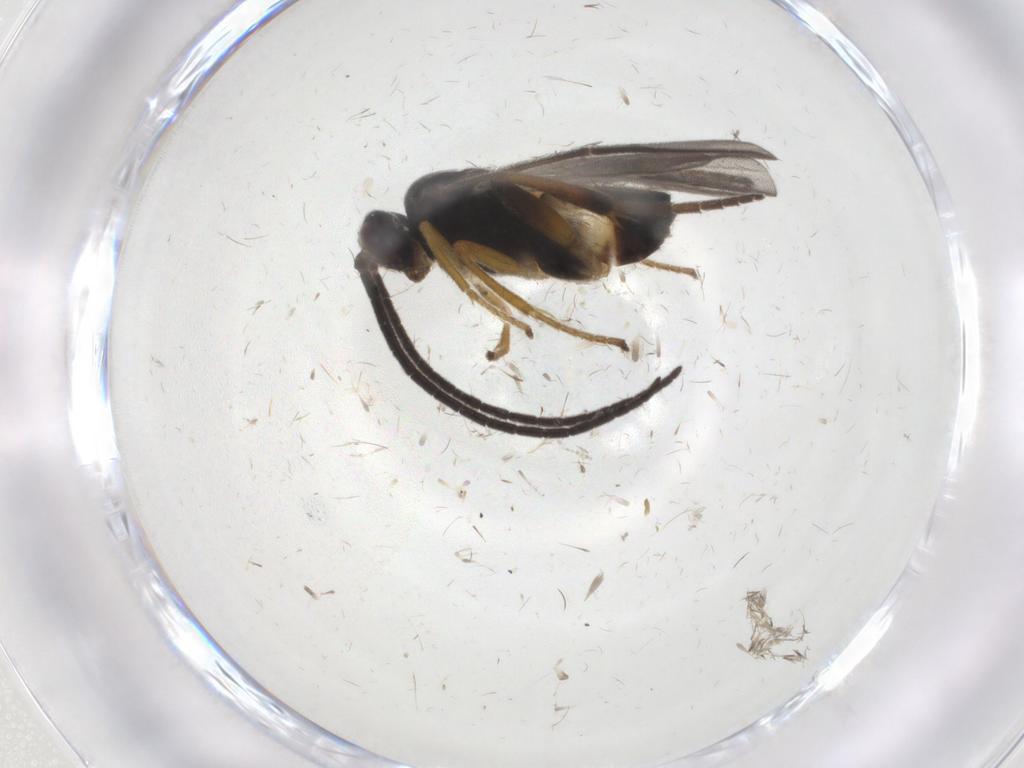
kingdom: Animalia
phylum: Arthropoda
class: Insecta
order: Hymenoptera
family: Braconidae
